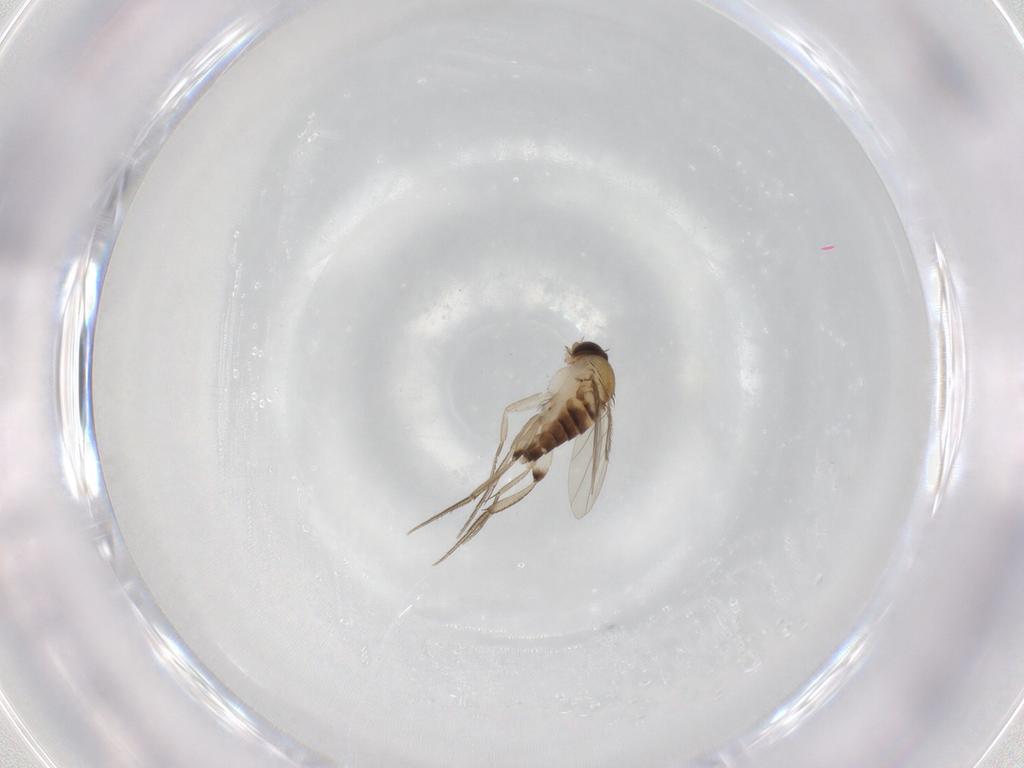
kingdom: Animalia
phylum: Arthropoda
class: Insecta
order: Diptera
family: Phoridae
